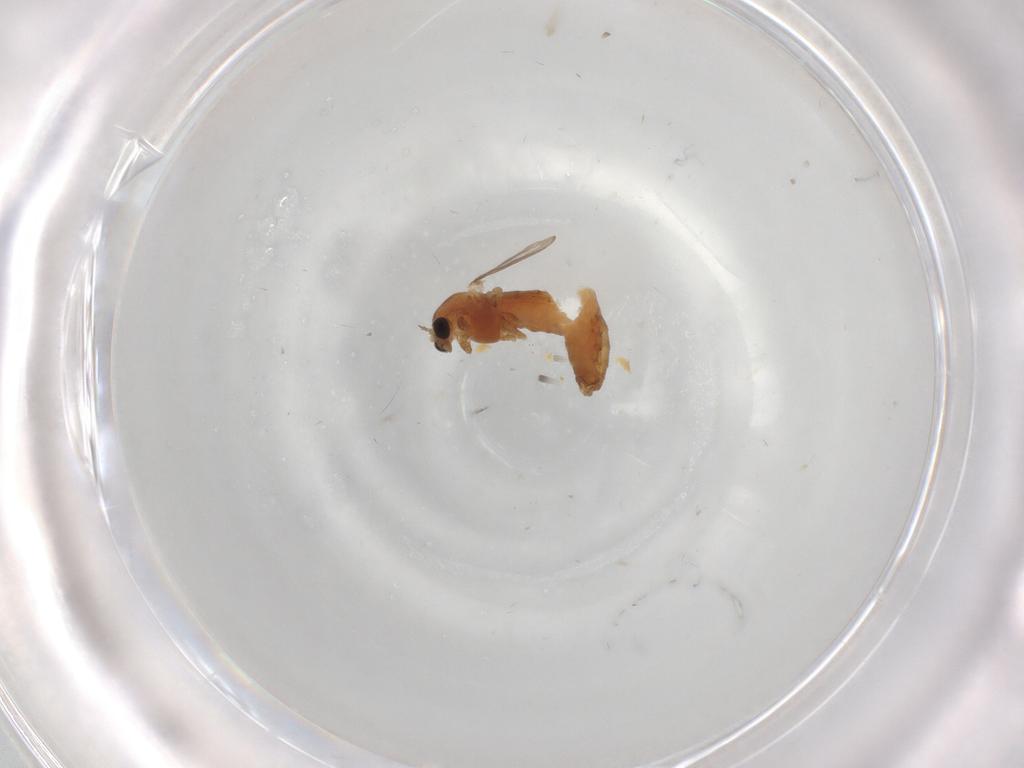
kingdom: Animalia
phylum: Arthropoda
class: Insecta
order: Diptera
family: Chironomidae
